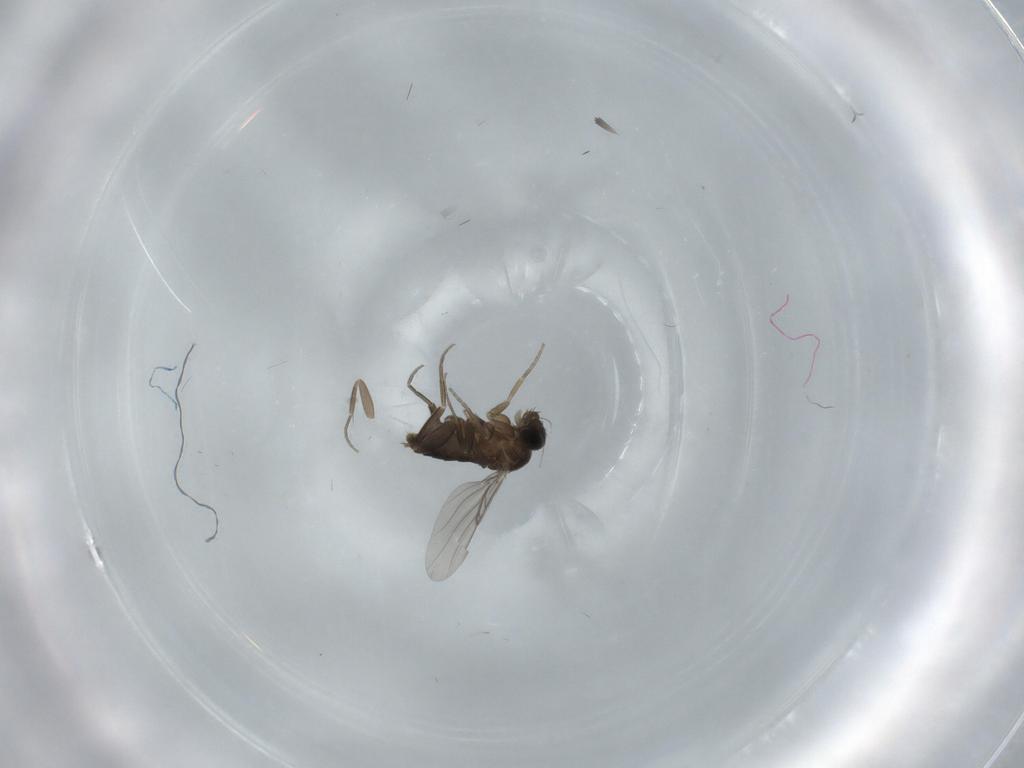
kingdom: Animalia
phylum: Arthropoda
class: Insecta
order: Diptera
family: Phoridae
